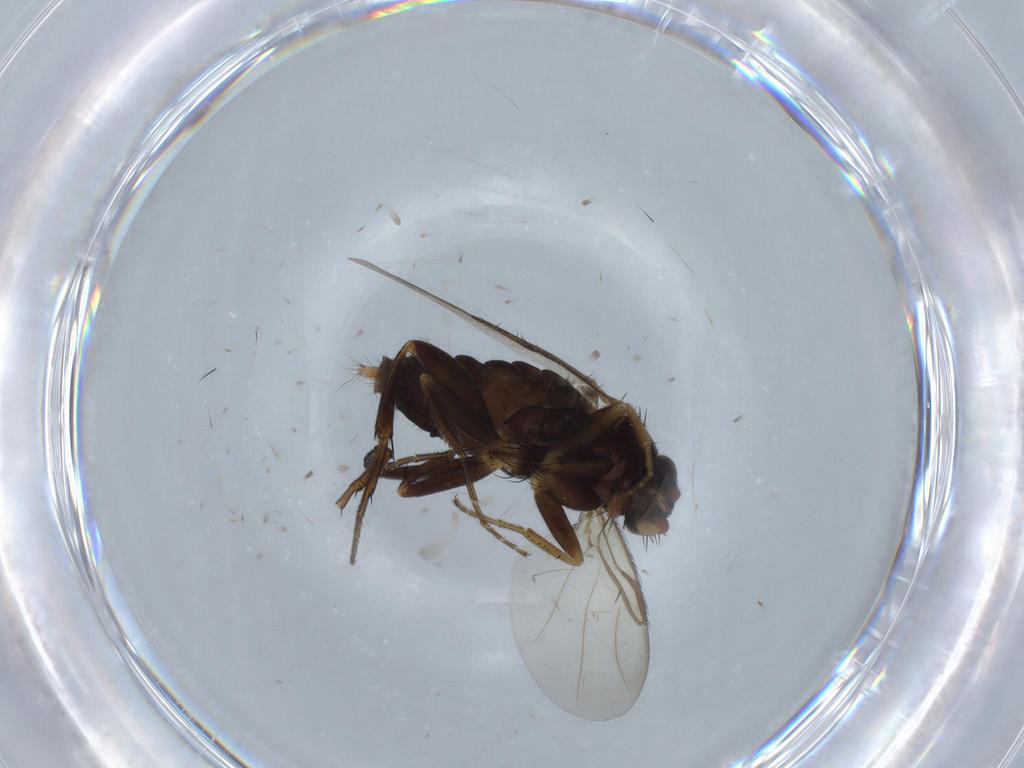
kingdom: Animalia
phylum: Arthropoda
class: Insecta
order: Diptera
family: Phoridae
